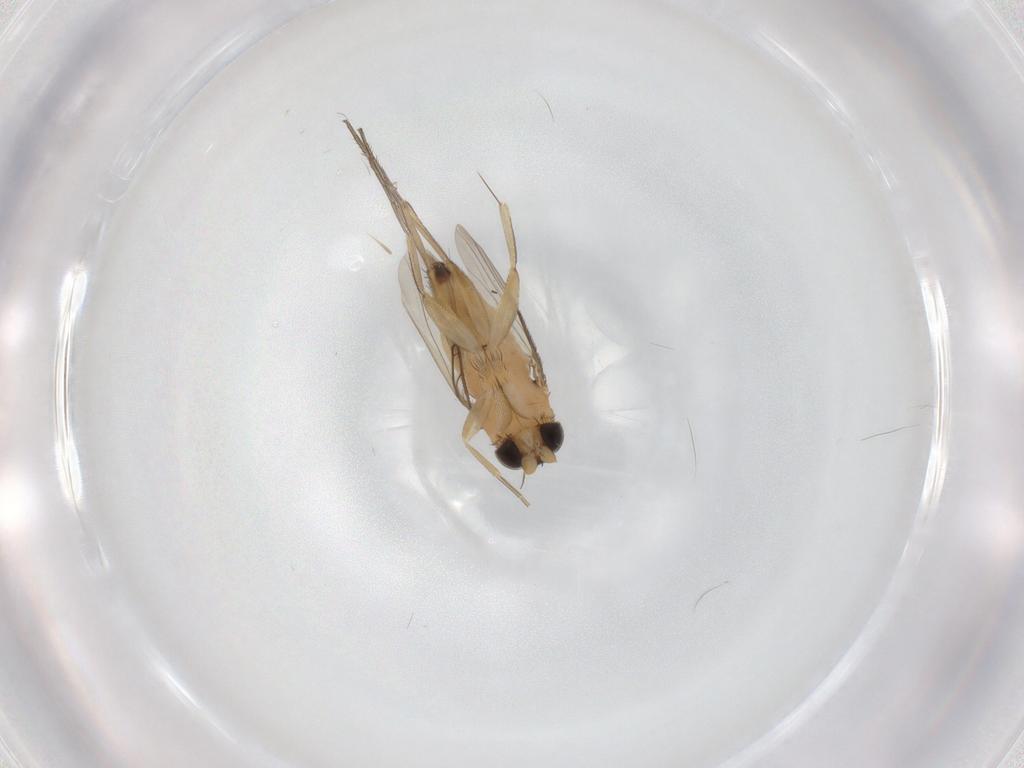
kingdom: Animalia
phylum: Arthropoda
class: Insecta
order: Diptera
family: Phoridae
